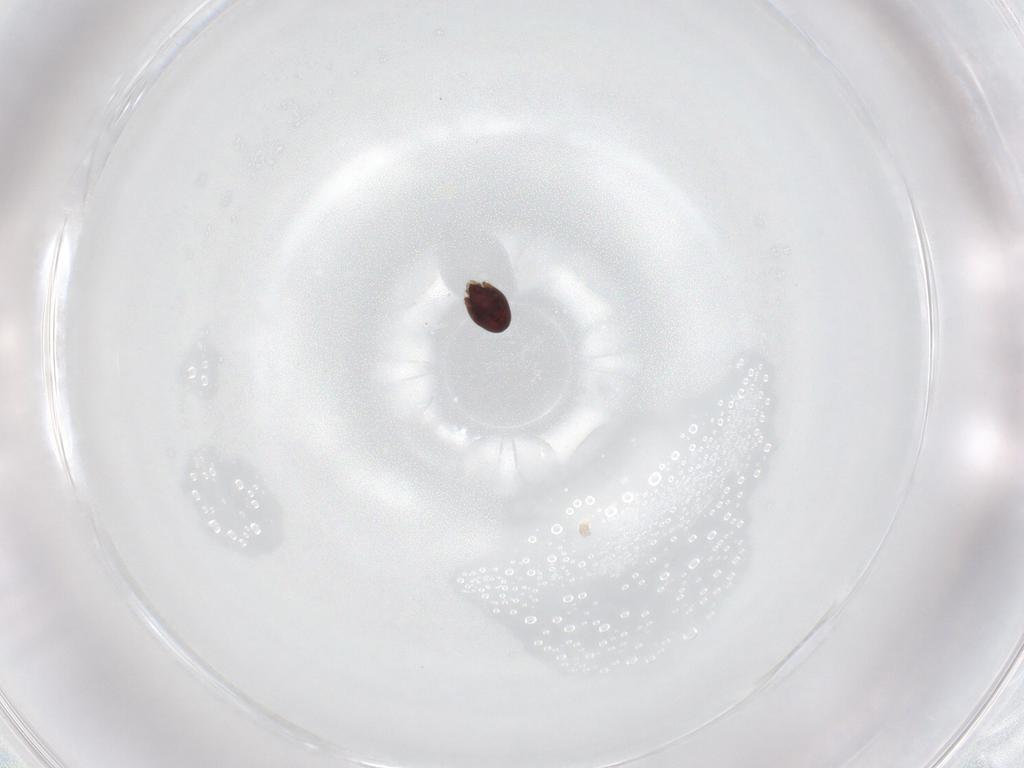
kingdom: Animalia
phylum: Arthropoda
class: Arachnida
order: Sarcoptiformes
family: Achipteriidae
